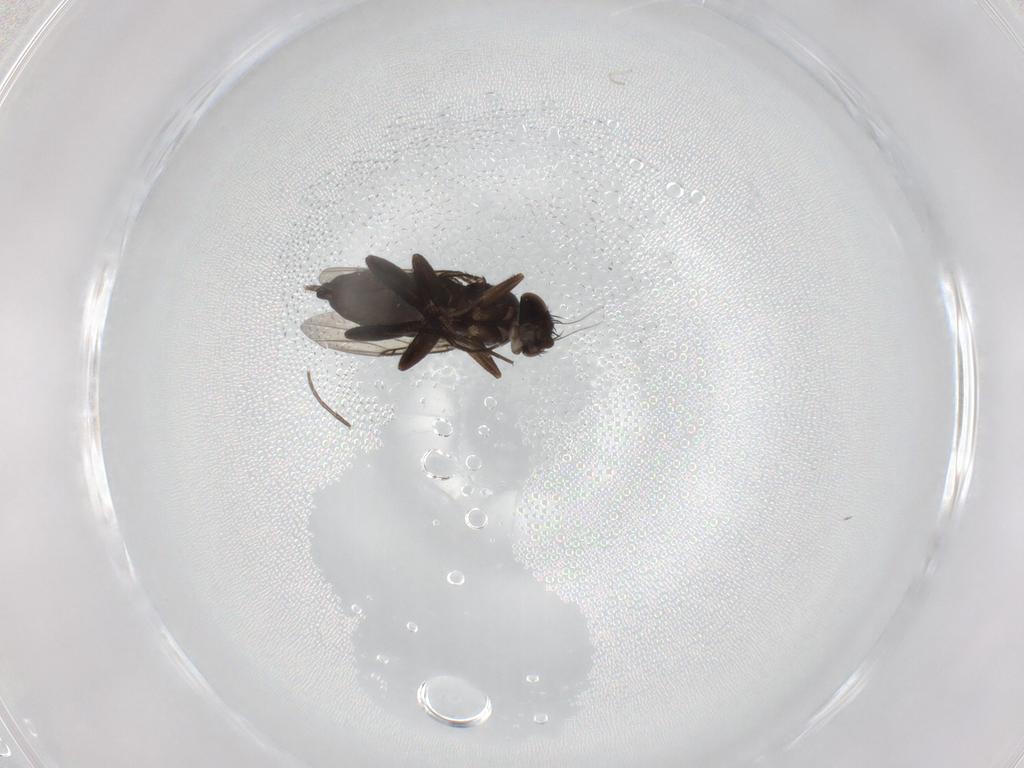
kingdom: Animalia
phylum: Arthropoda
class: Insecta
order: Diptera
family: Phoridae
